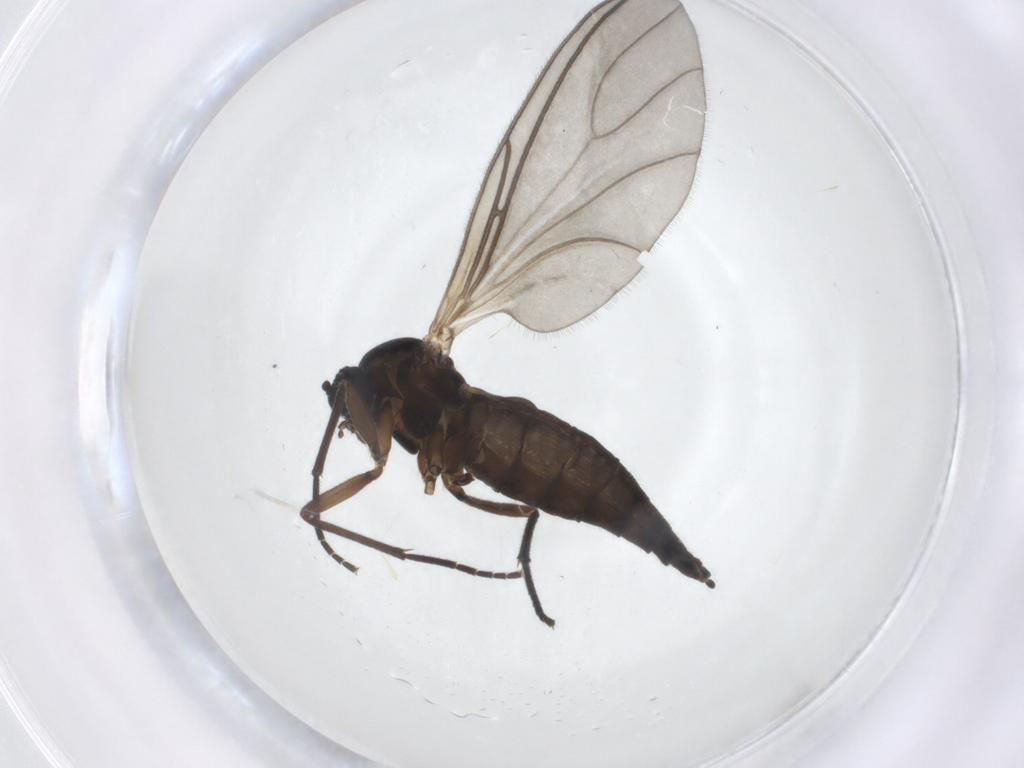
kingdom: Animalia
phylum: Arthropoda
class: Insecta
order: Diptera
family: Sciaridae
